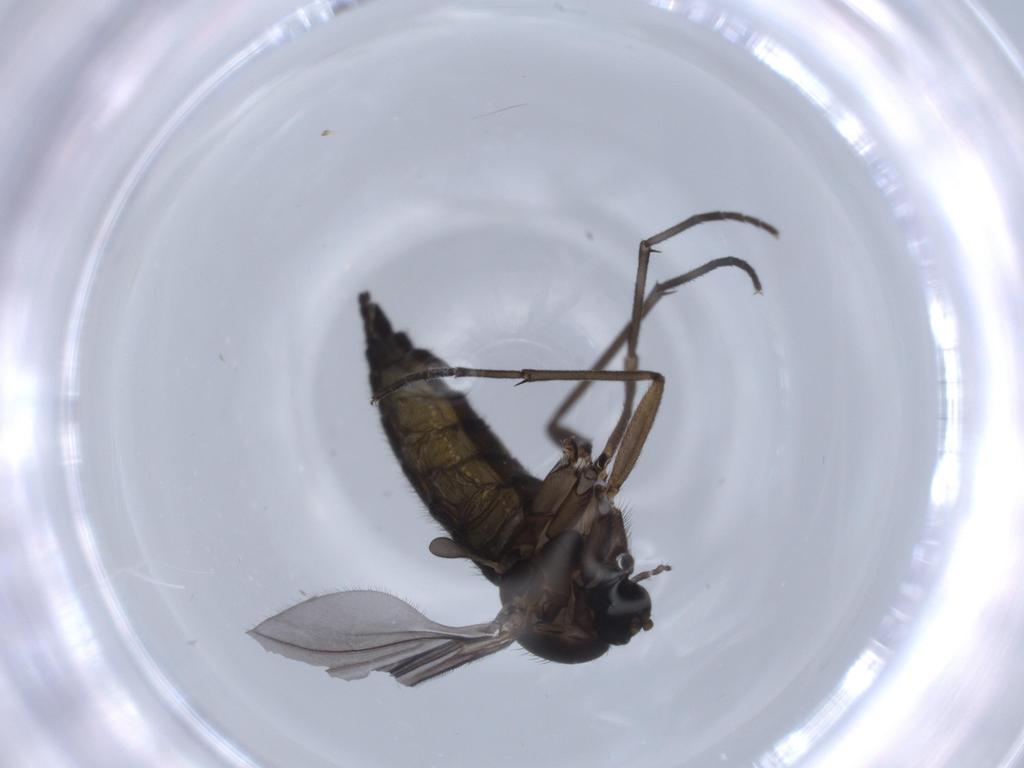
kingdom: Animalia
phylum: Arthropoda
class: Insecta
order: Diptera
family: Sciaridae
